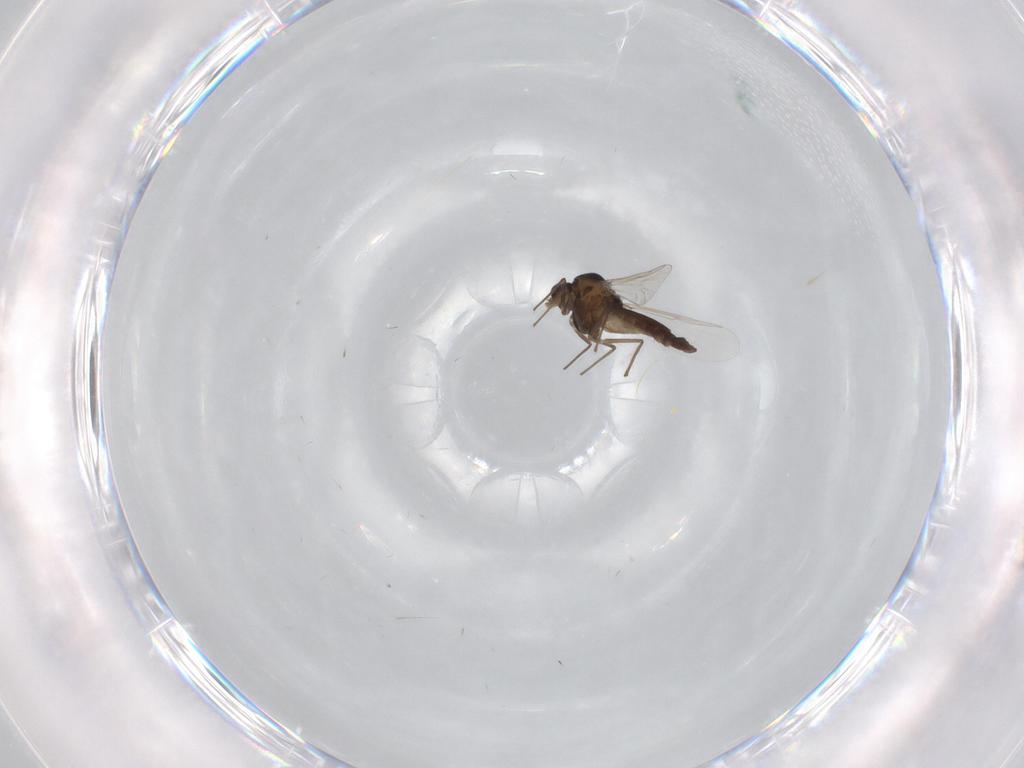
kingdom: Animalia
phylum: Arthropoda
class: Insecta
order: Diptera
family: Chironomidae
